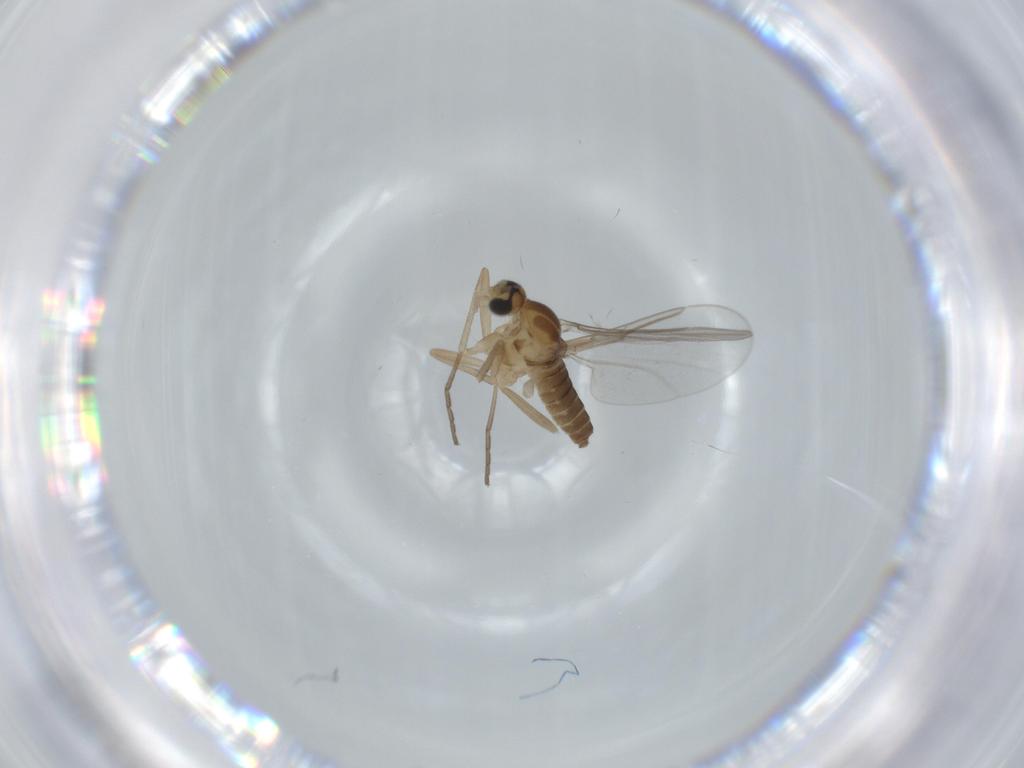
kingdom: Animalia
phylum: Arthropoda
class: Insecta
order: Diptera
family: Cecidomyiidae
